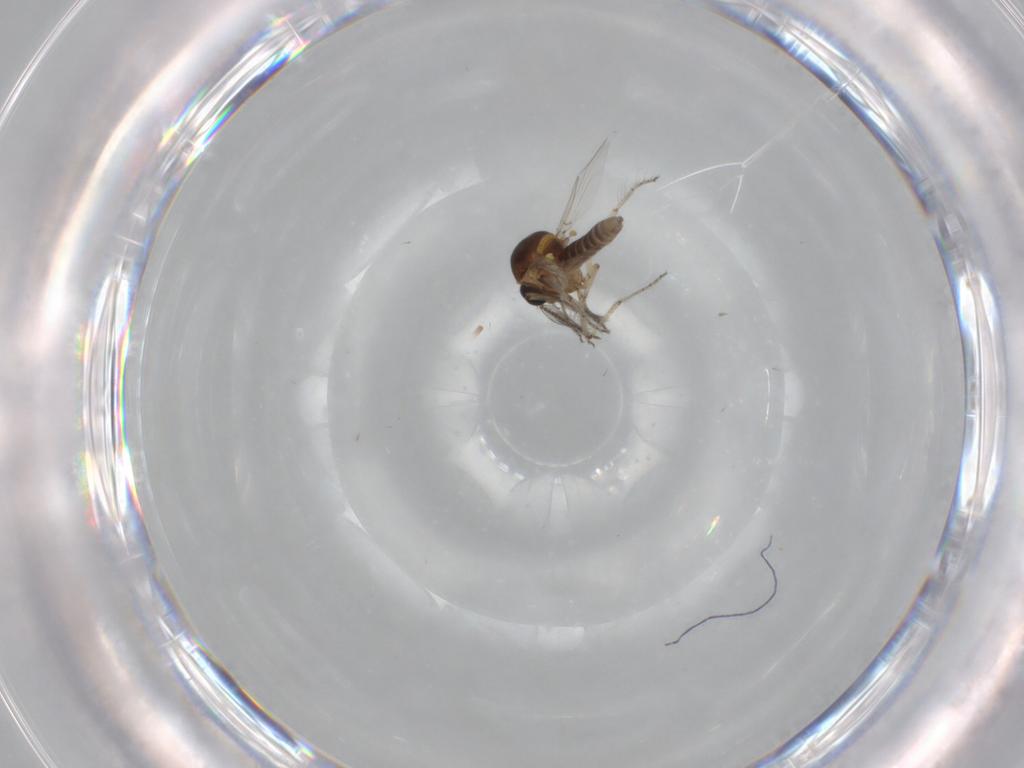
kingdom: Animalia
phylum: Arthropoda
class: Insecta
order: Diptera
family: Ceratopogonidae
